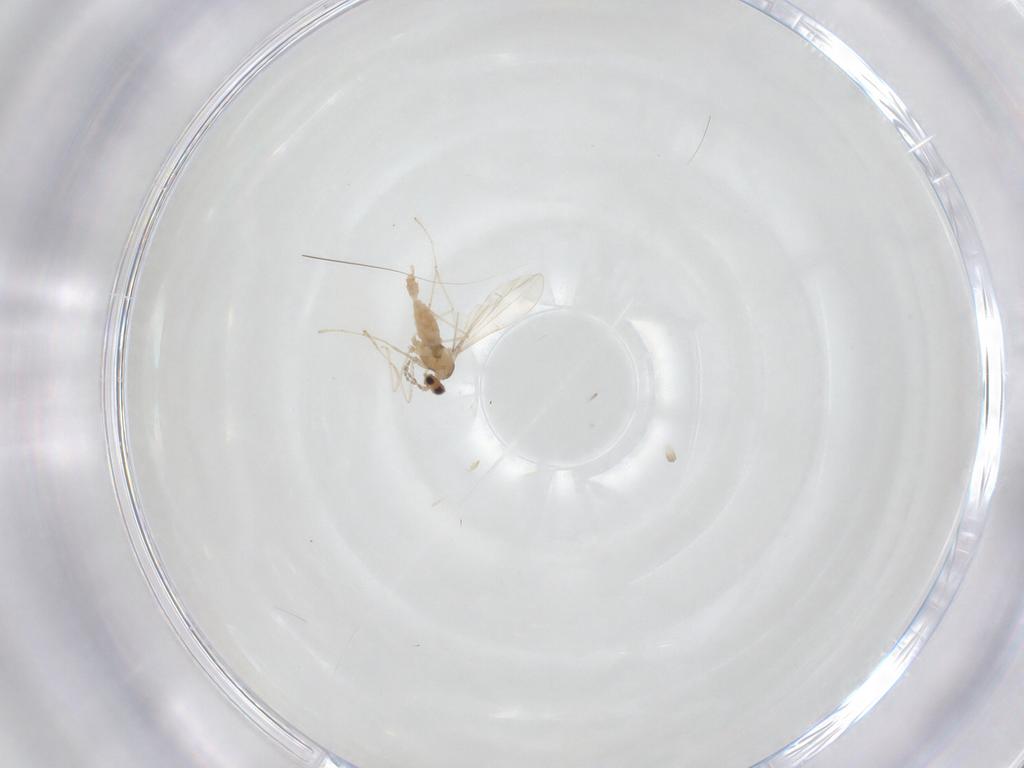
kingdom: Animalia
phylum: Arthropoda
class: Insecta
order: Diptera
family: Cecidomyiidae
